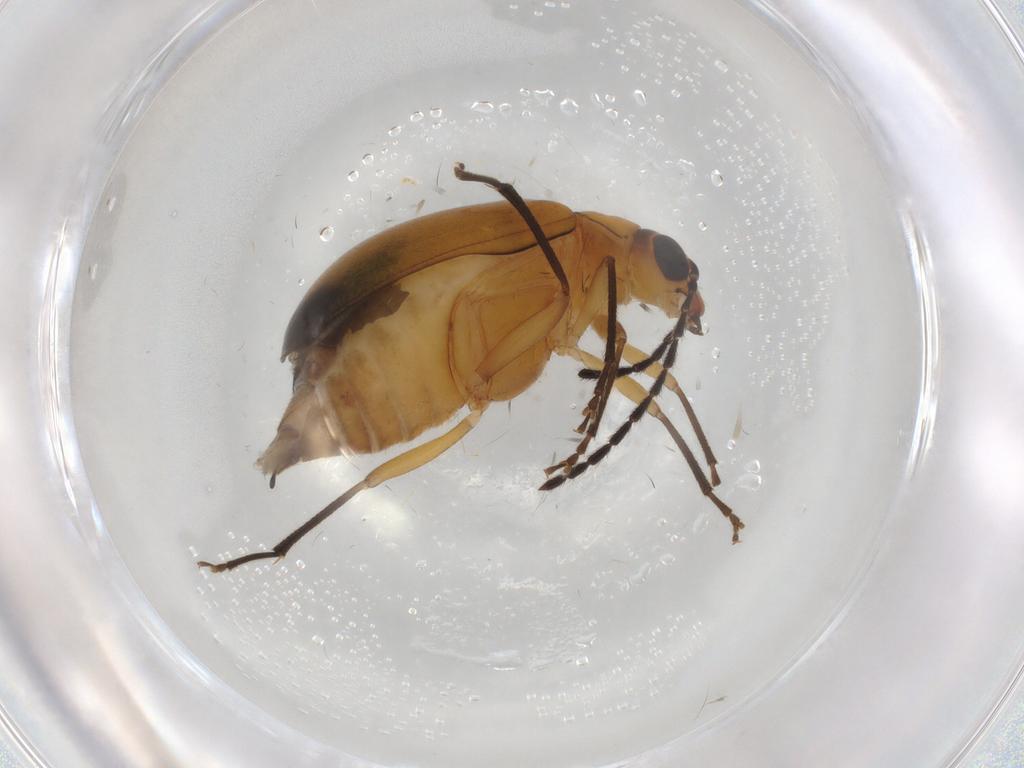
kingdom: Animalia
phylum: Arthropoda
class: Insecta
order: Coleoptera
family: Chrysomelidae
